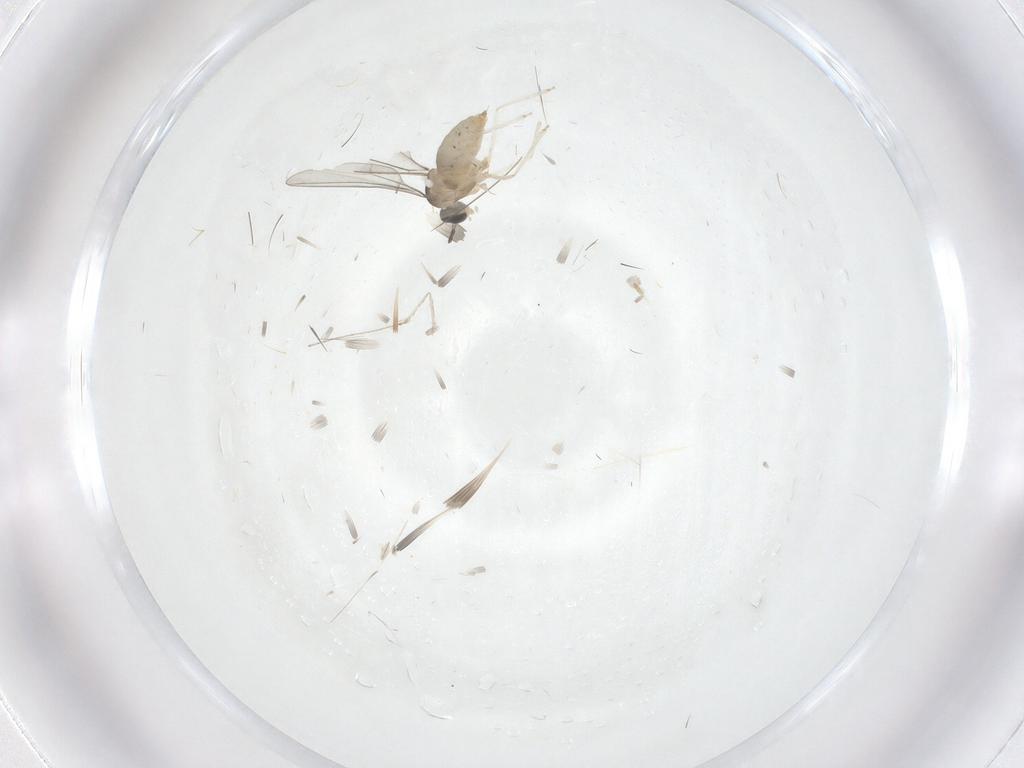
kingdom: Animalia
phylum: Arthropoda
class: Insecta
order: Diptera
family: Cecidomyiidae
